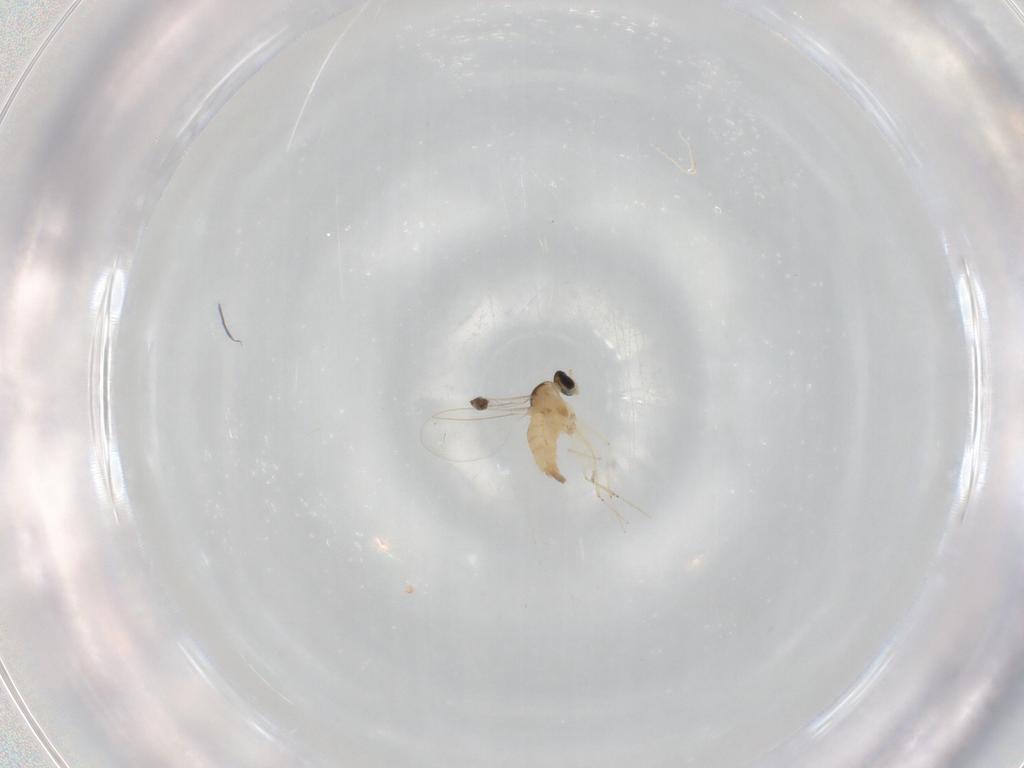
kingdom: Animalia
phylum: Arthropoda
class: Insecta
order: Diptera
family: Cecidomyiidae
